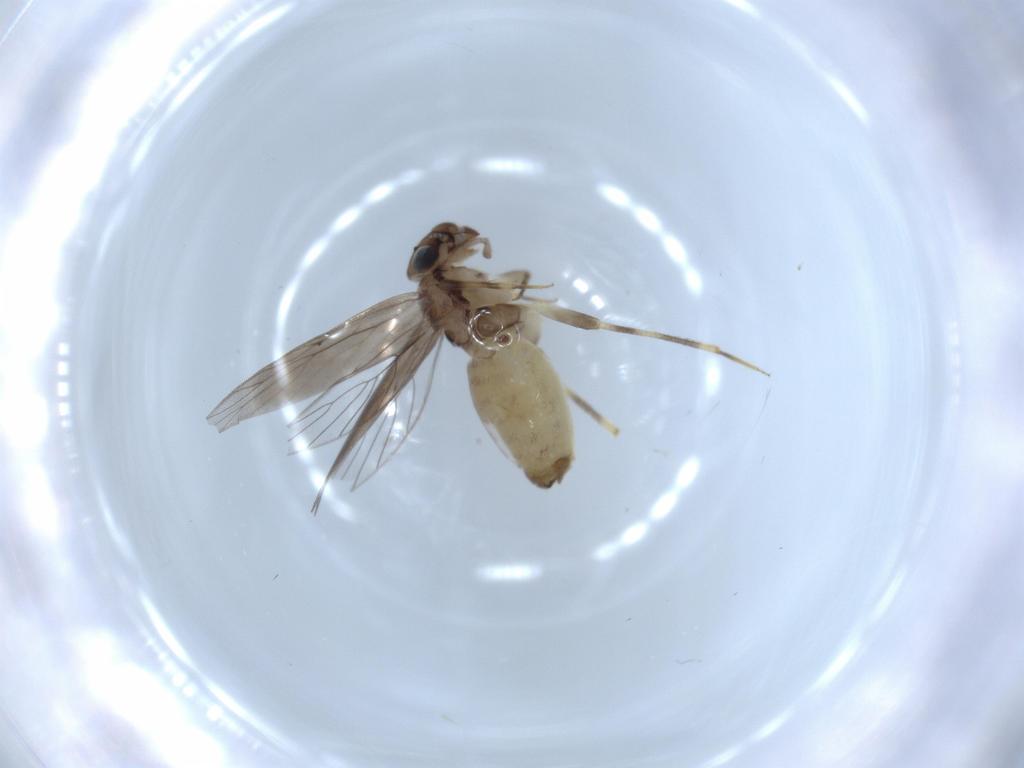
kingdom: Animalia
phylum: Arthropoda
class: Insecta
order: Psocodea
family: Lepidopsocidae
